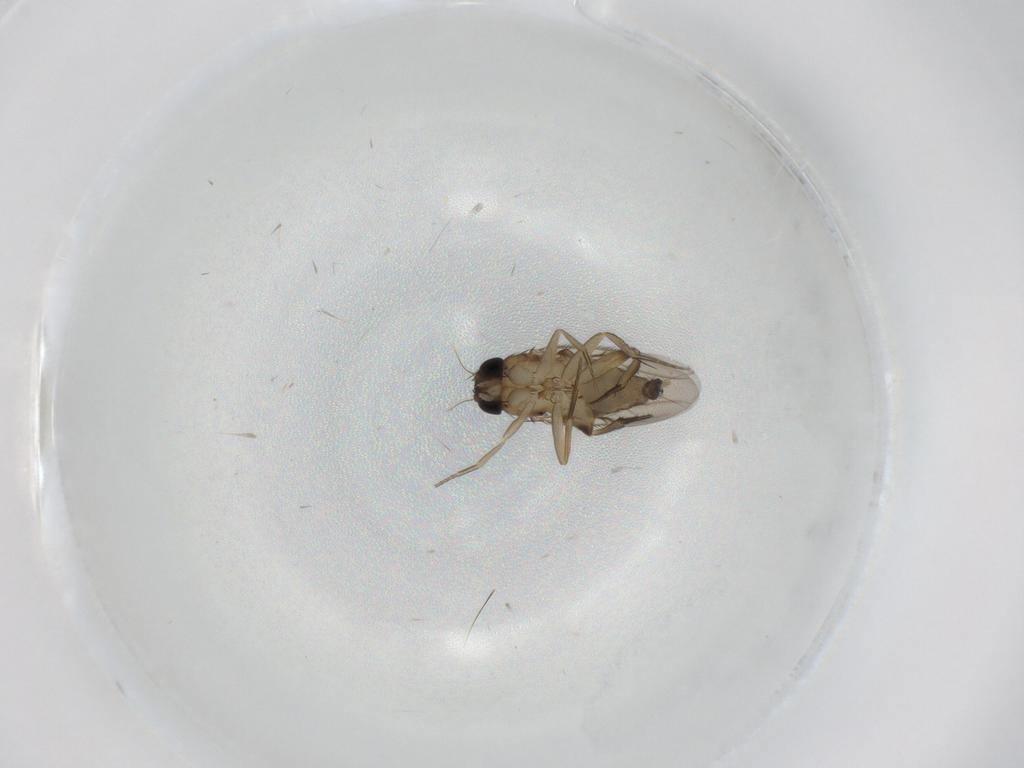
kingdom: Animalia
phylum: Arthropoda
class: Insecta
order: Diptera
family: Phoridae
